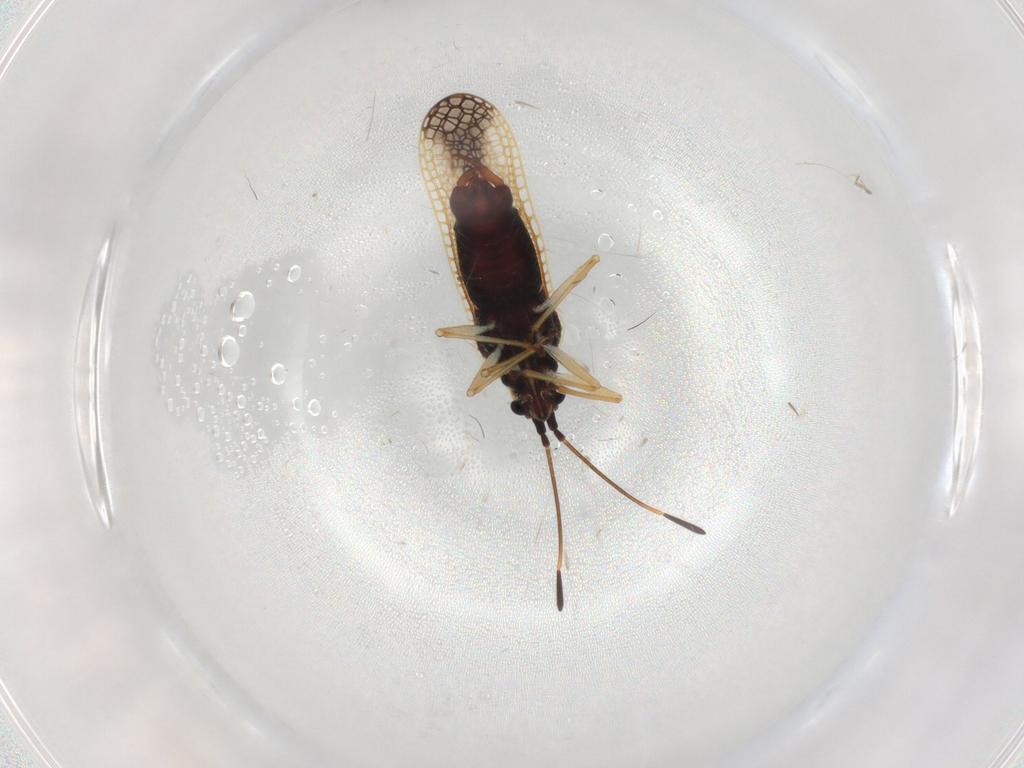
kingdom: Animalia
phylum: Arthropoda
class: Insecta
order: Hemiptera
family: Tingidae
